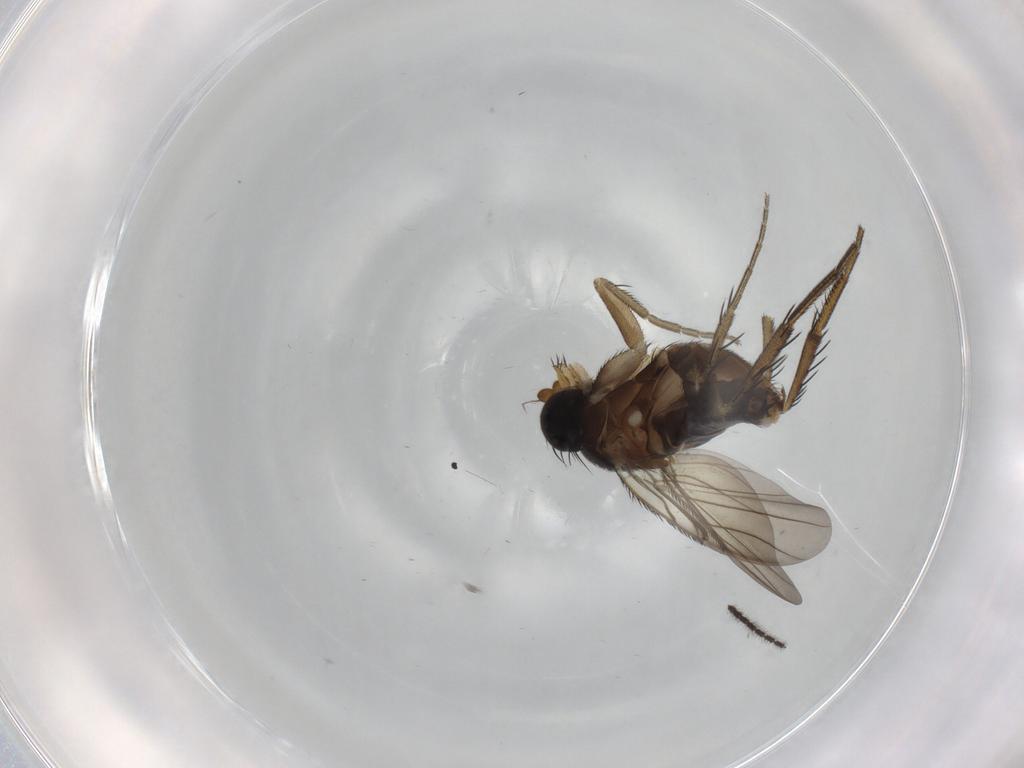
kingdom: Animalia
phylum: Arthropoda
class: Insecta
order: Diptera
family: Phoridae
